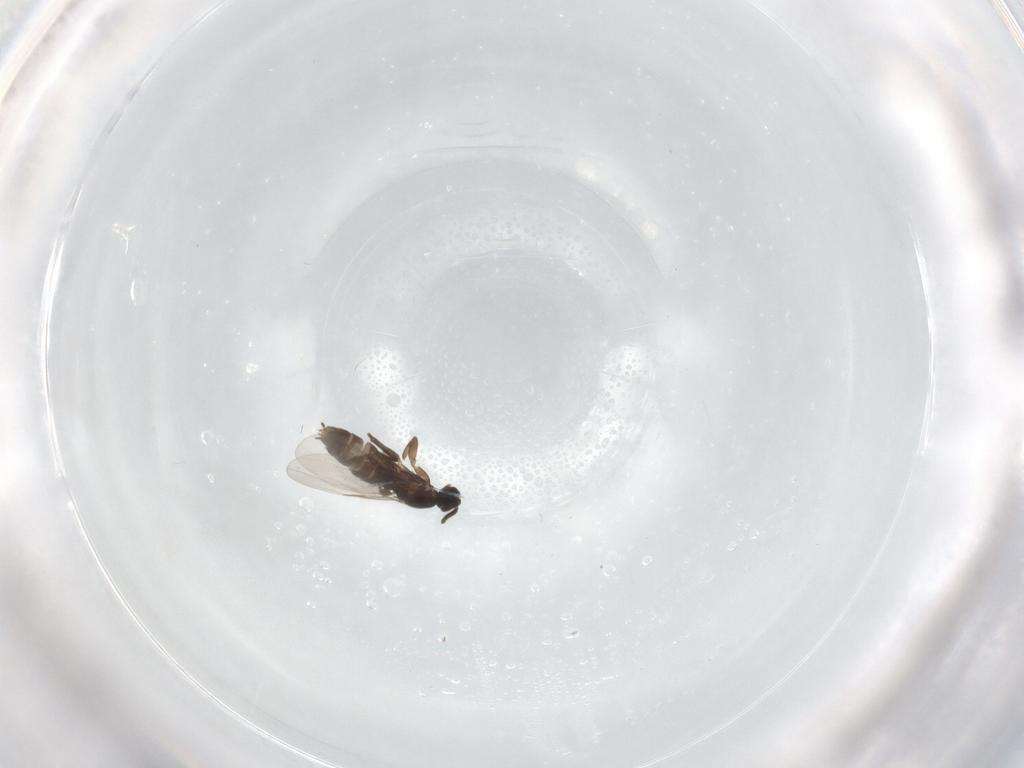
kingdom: Animalia
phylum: Arthropoda
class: Insecta
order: Diptera
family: Scatopsidae
